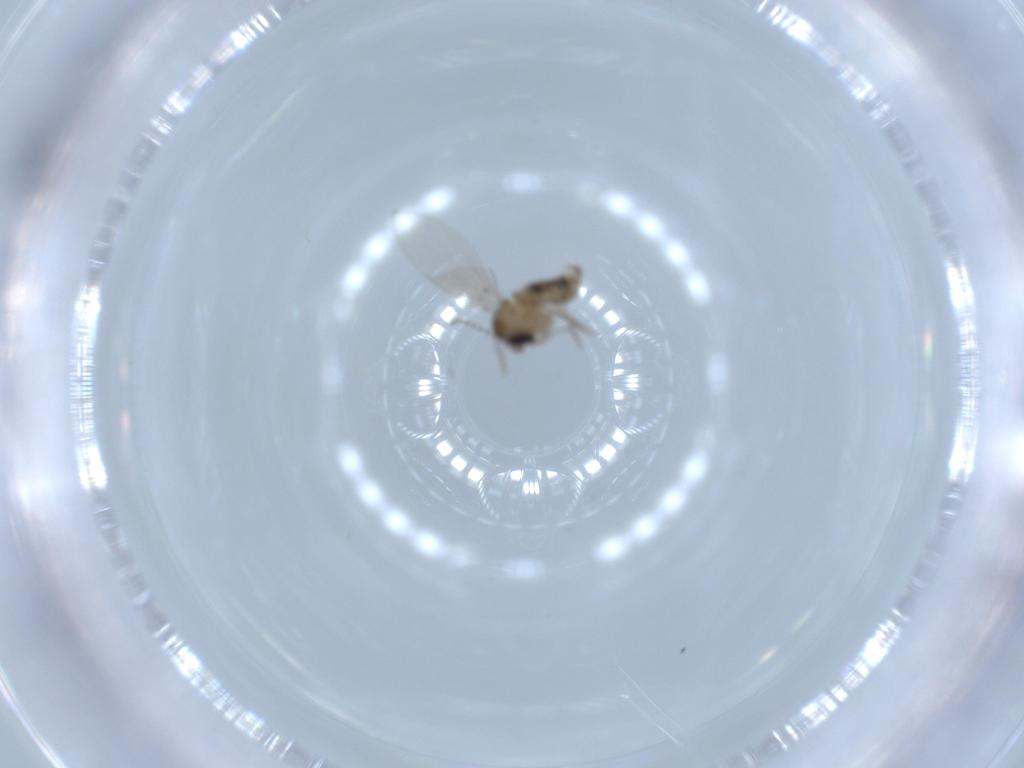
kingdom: Animalia
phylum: Arthropoda
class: Insecta
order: Diptera
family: Psychodidae
